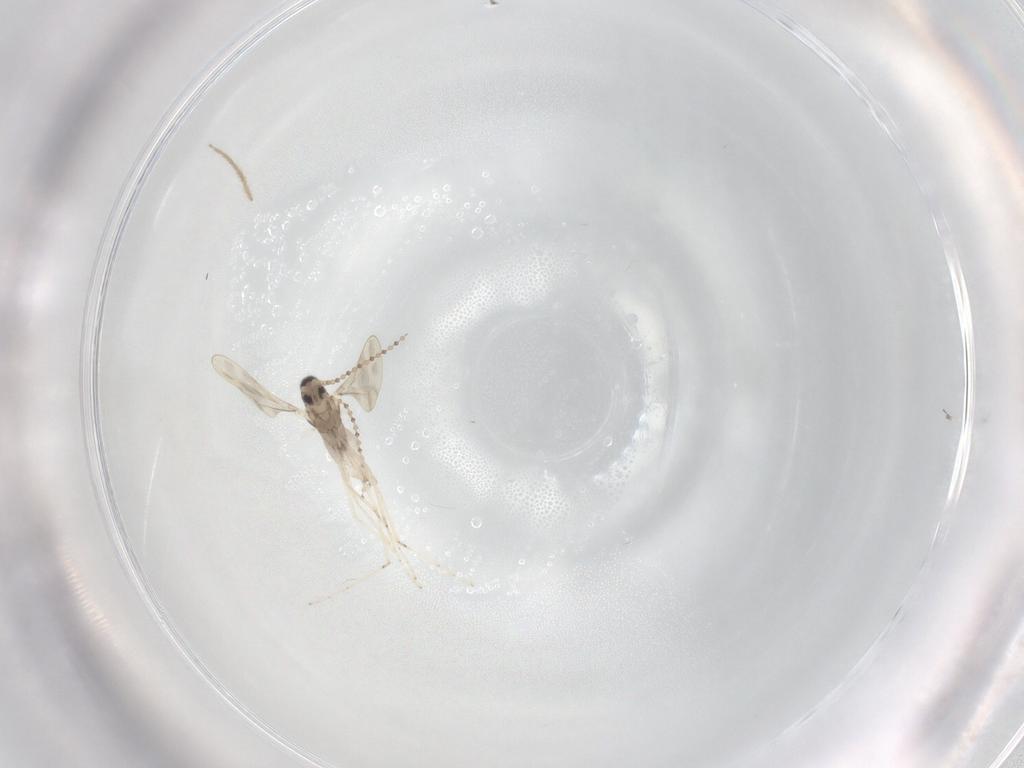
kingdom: Animalia
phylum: Arthropoda
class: Insecta
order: Diptera
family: Cecidomyiidae
